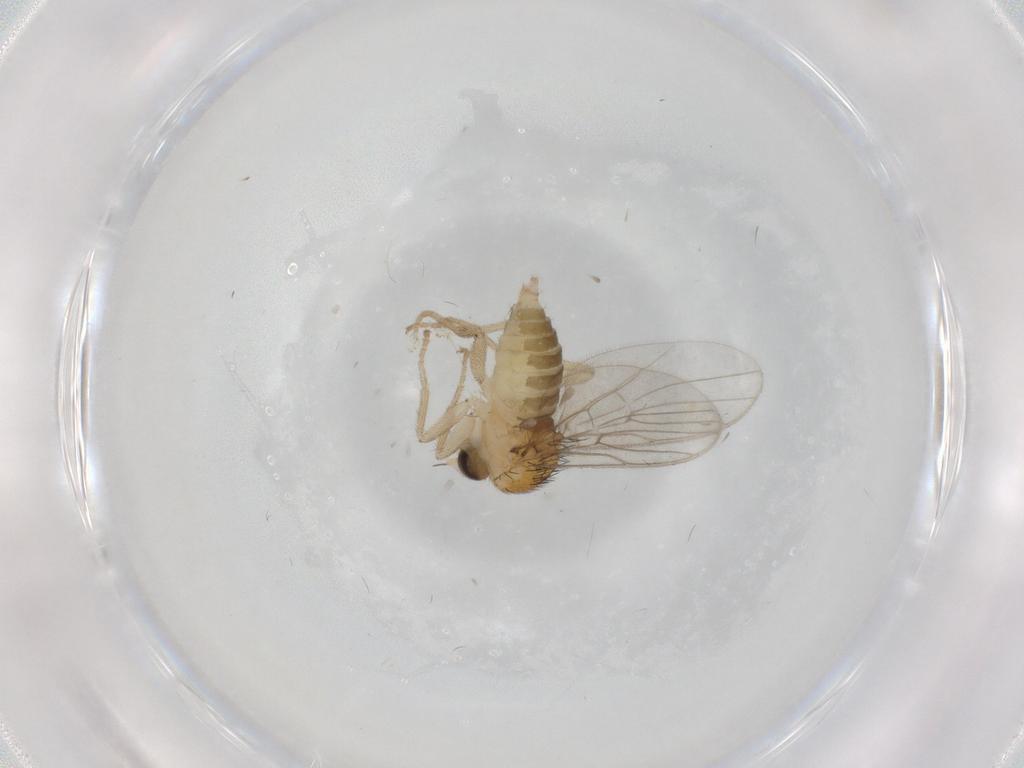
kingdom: Animalia
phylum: Arthropoda
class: Insecta
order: Diptera
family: Hybotidae
